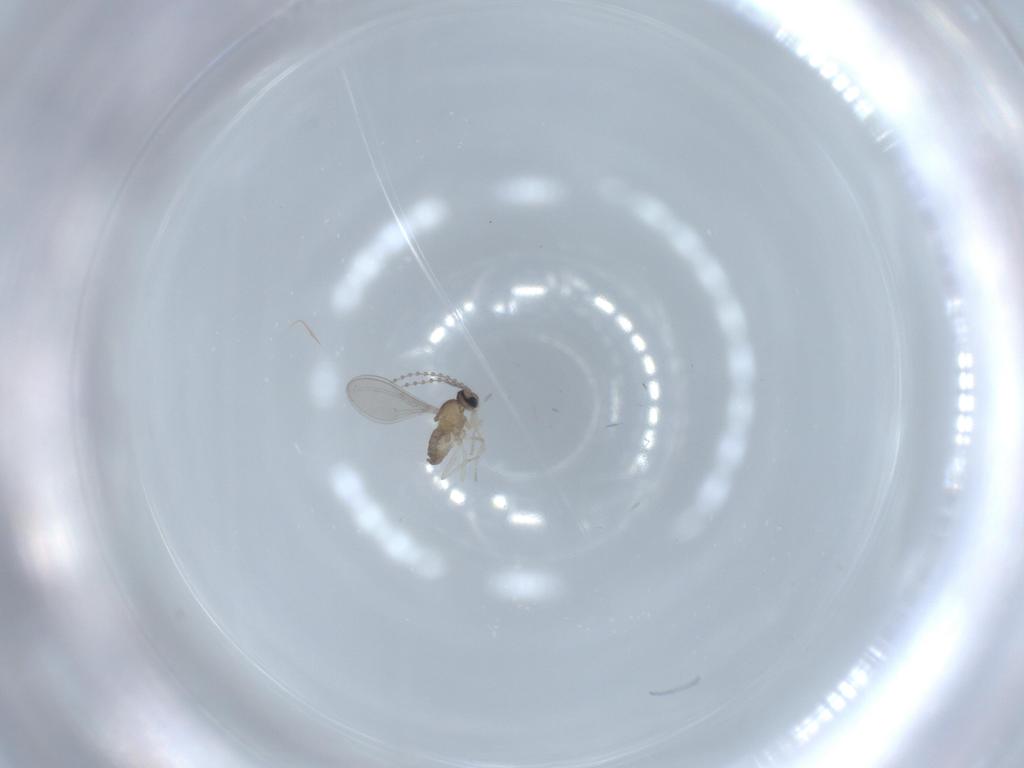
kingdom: Animalia
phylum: Arthropoda
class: Insecta
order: Diptera
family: Cecidomyiidae
